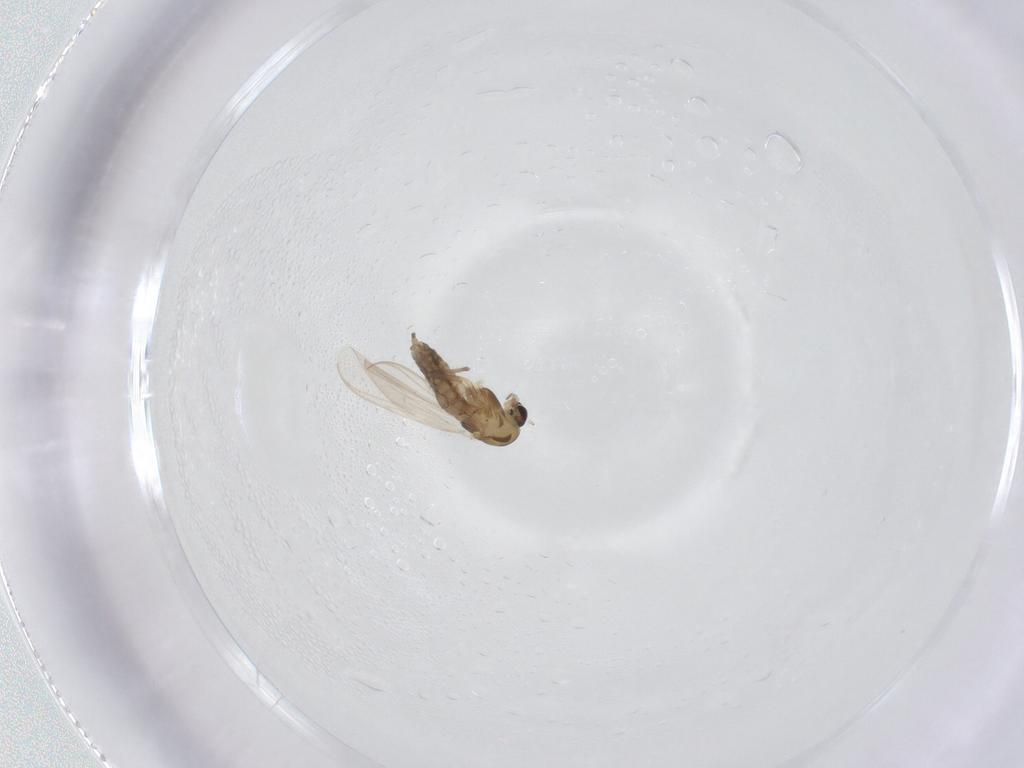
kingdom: Animalia
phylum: Arthropoda
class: Insecta
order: Diptera
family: Chironomidae
